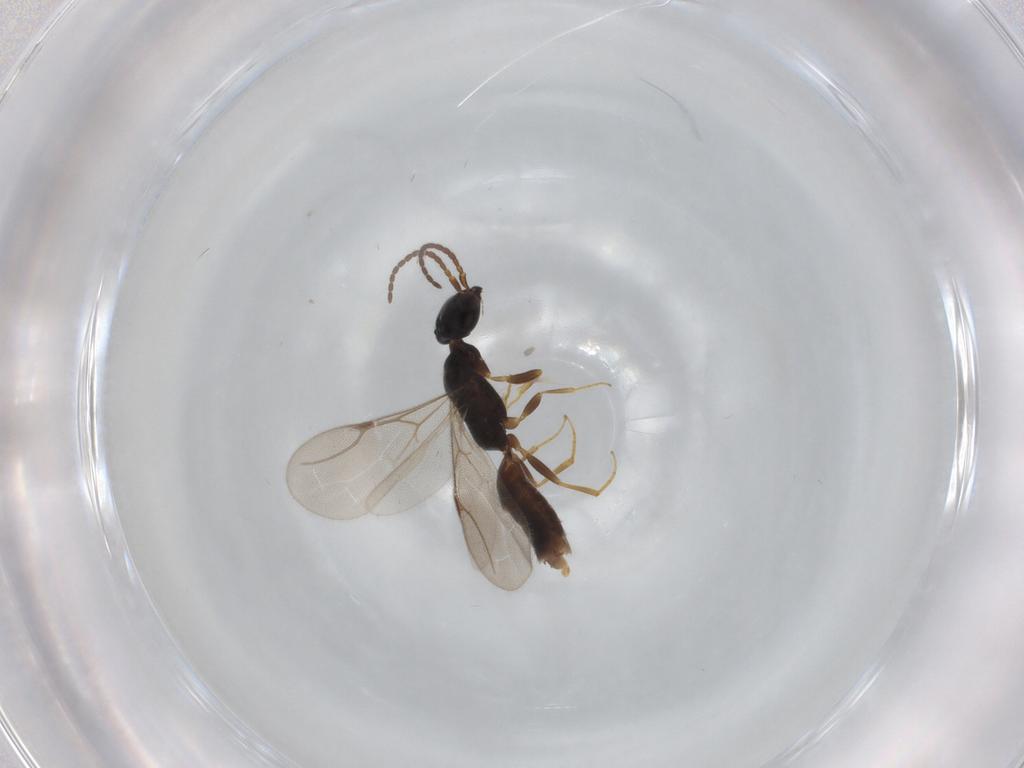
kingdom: Animalia
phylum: Arthropoda
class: Insecta
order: Hymenoptera
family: Bethylidae
